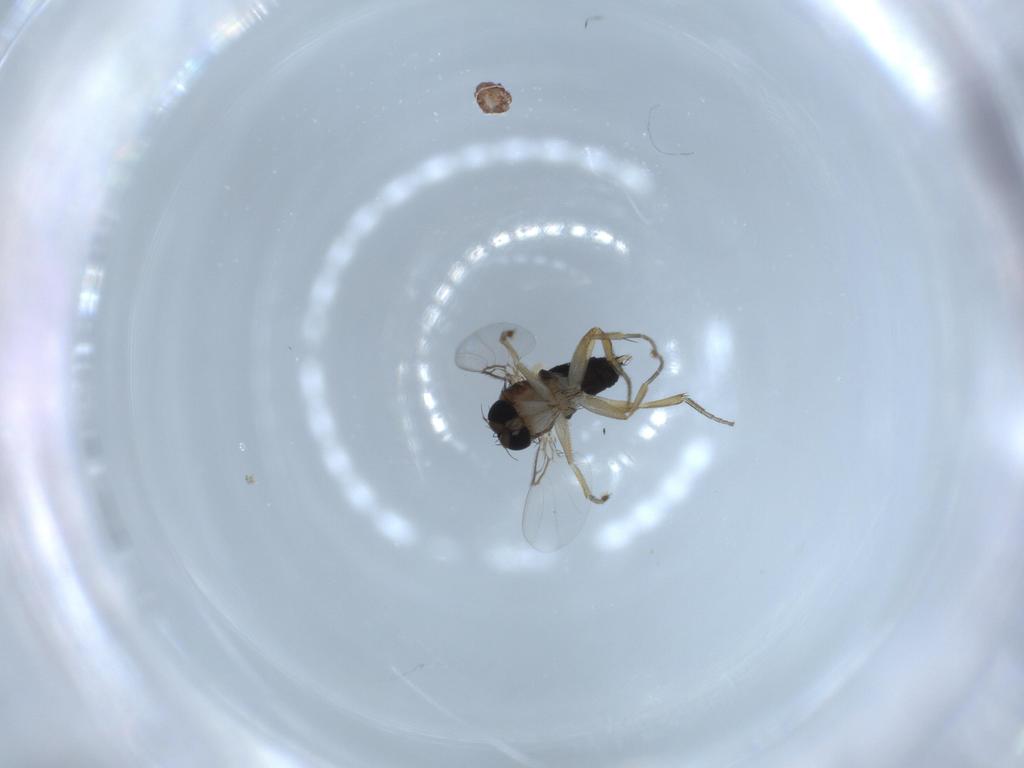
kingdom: Animalia
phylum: Arthropoda
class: Insecta
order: Diptera
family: Phoridae
